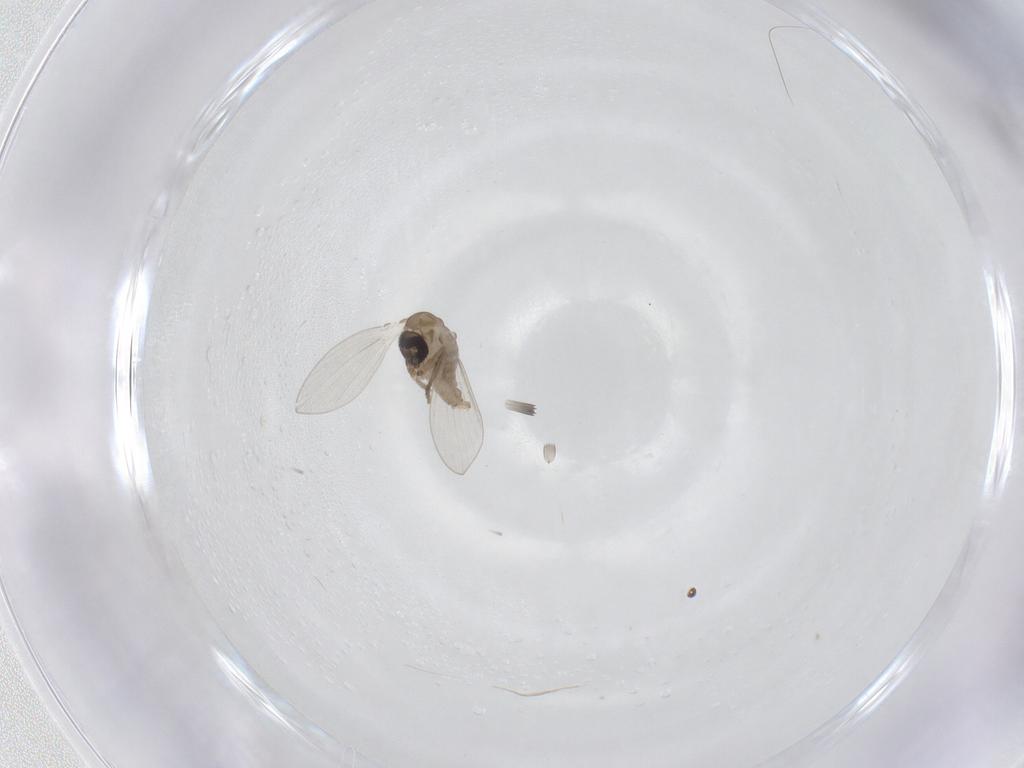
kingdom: Animalia
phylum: Arthropoda
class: Insecta
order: Diptera
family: Psychodidae
